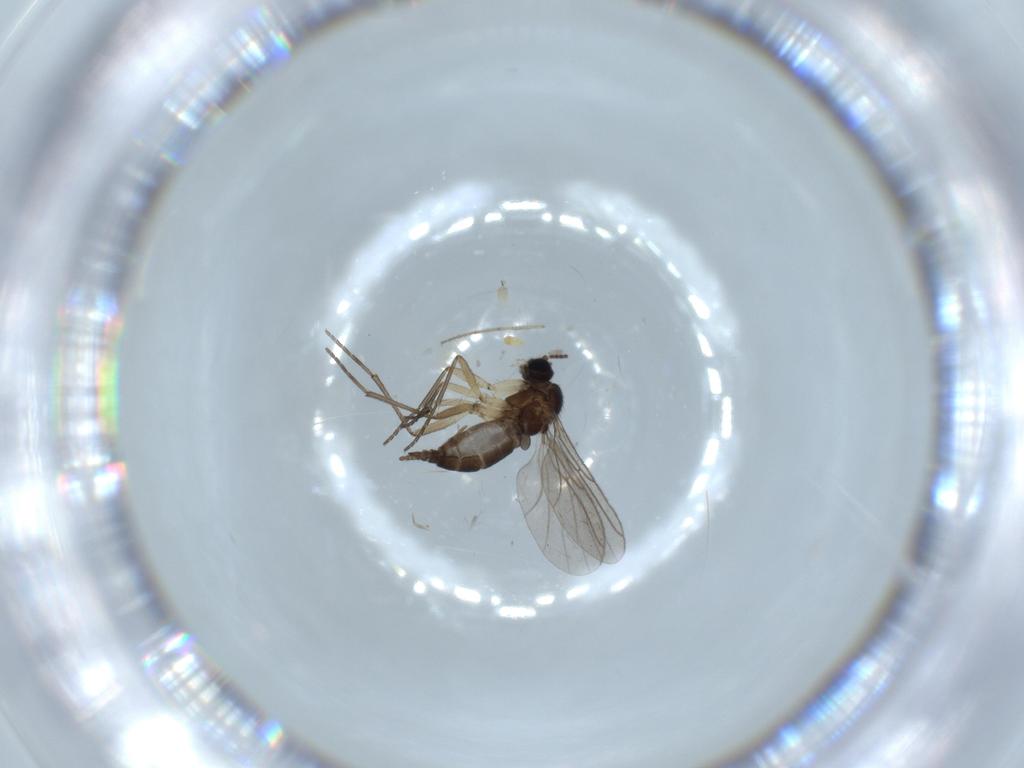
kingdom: Animalia
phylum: Arthropoda
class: Insecta
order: Diptera
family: Sciaridae
